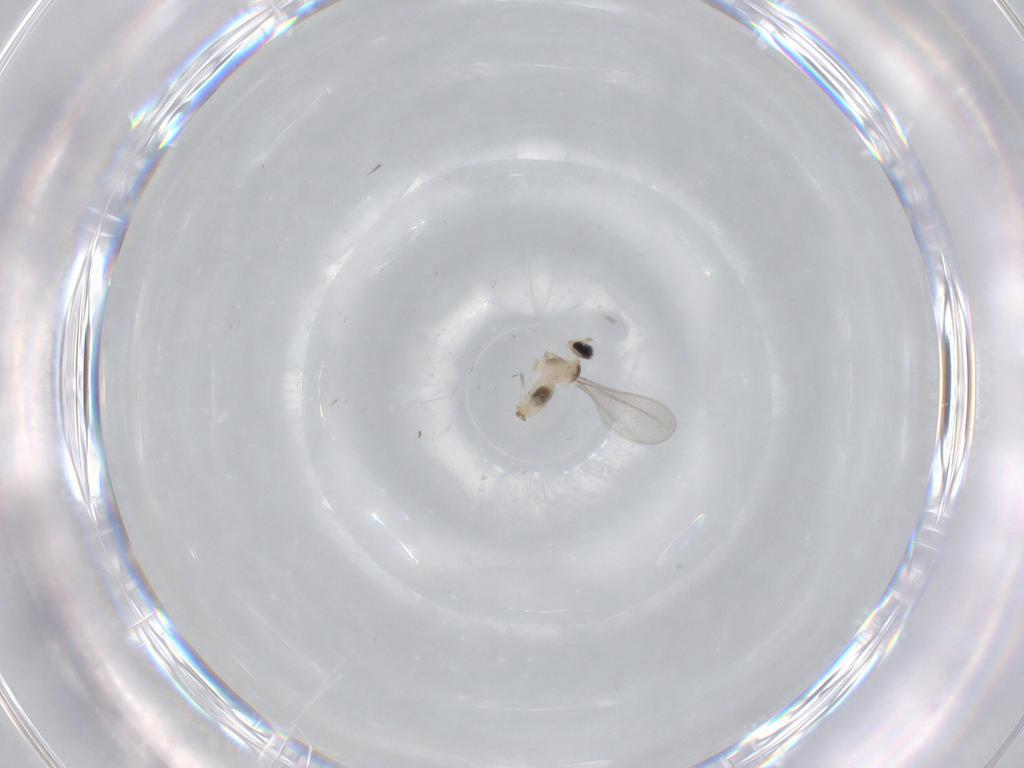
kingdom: Animalia
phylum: Arthropoda
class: Insecta
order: Diptera
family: Cecidomyiidae
